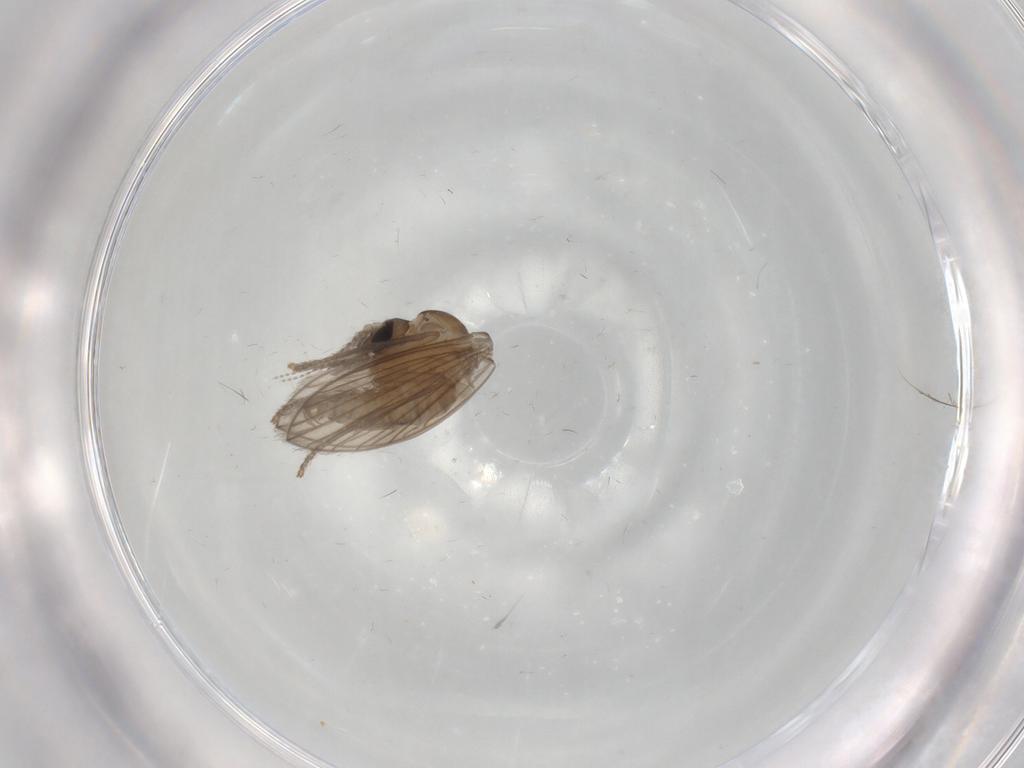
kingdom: Animalia
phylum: Arthropoda
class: Insecta
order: Diptera
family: Psychodidae
